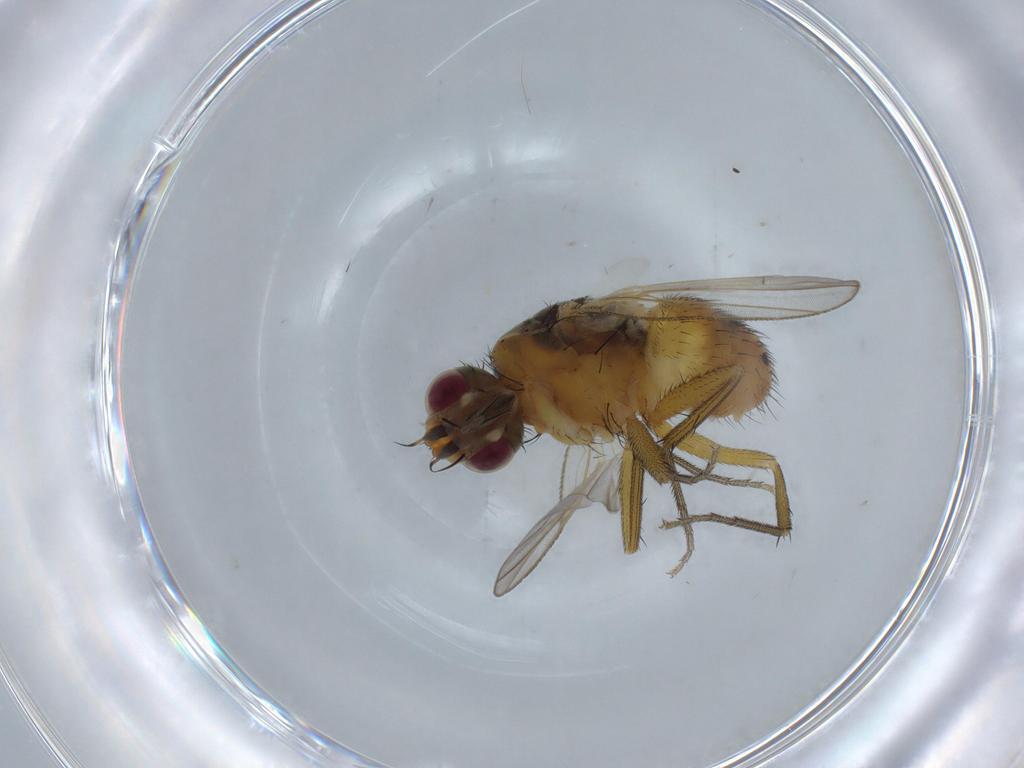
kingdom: Animalia
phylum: Arthropoda
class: Insecta
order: Diptera
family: Muscidae
